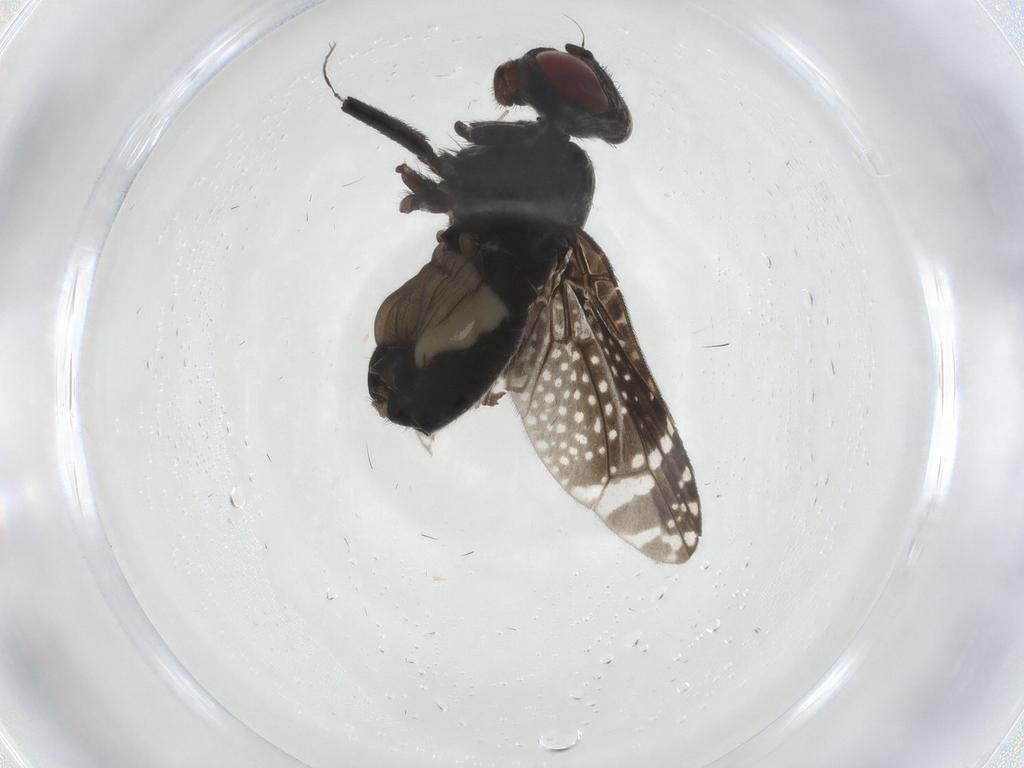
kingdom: Animalia
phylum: Arthropoda
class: Insecta
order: Diptera
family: Platystomatidae
